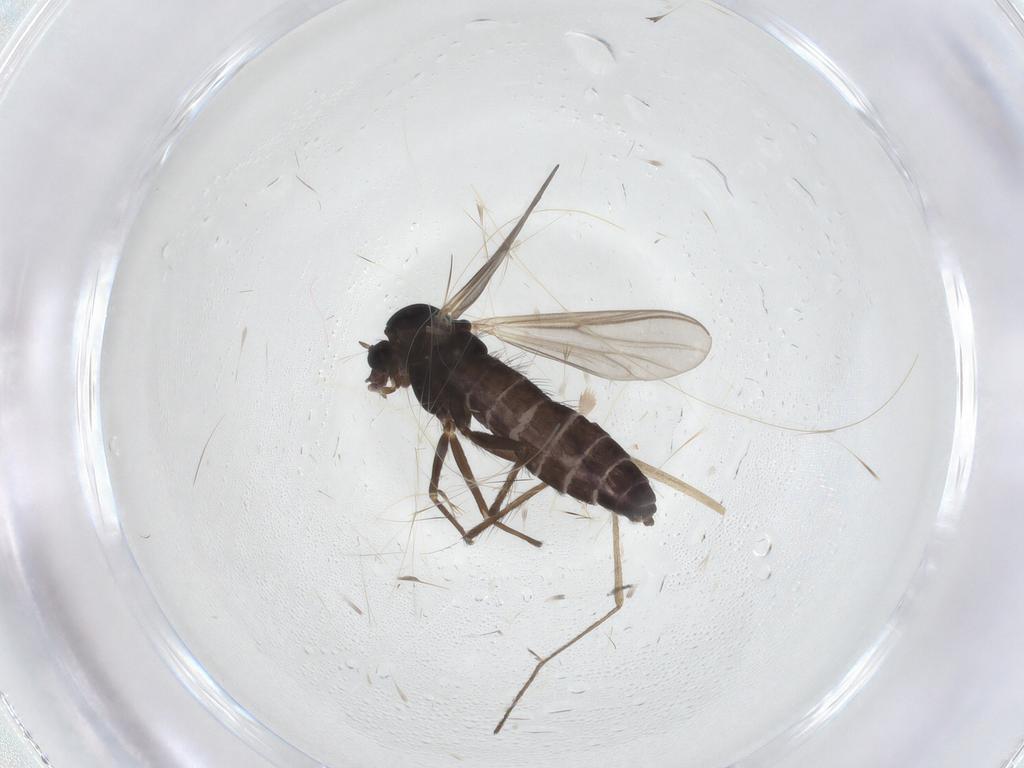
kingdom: Animalia
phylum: Arthropoda
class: Insecta
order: Diptera
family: Chironomidae
